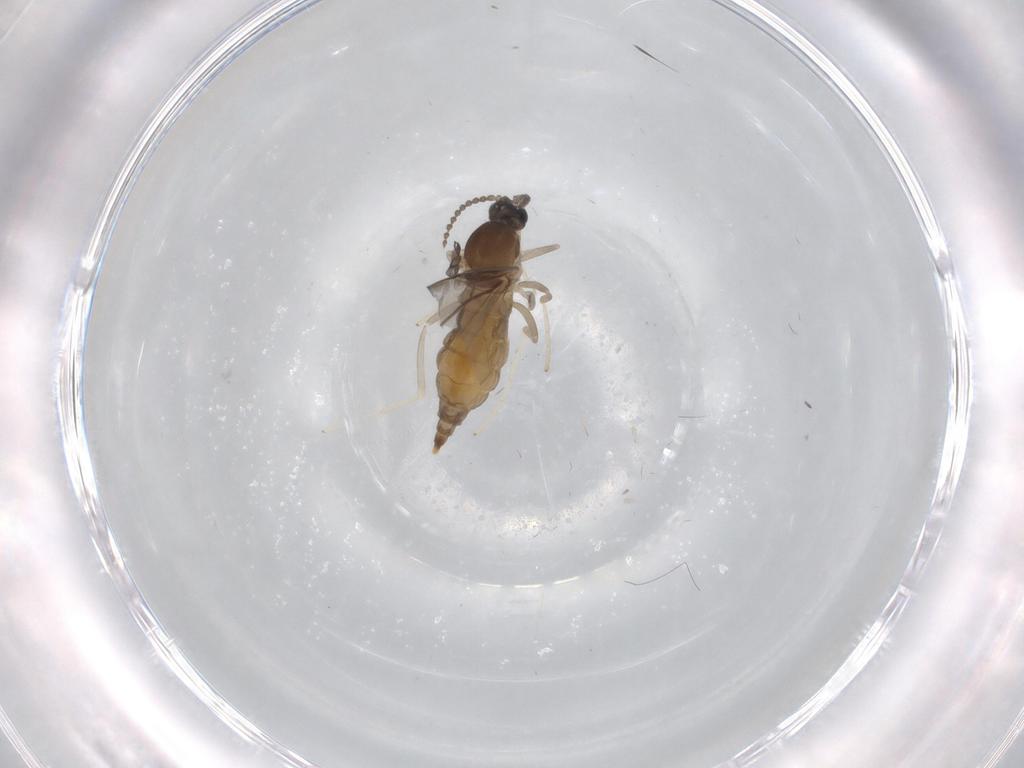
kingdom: Animalia
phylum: Arthropoda
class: Insecta
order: Diptera
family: Cecidomyiidae
